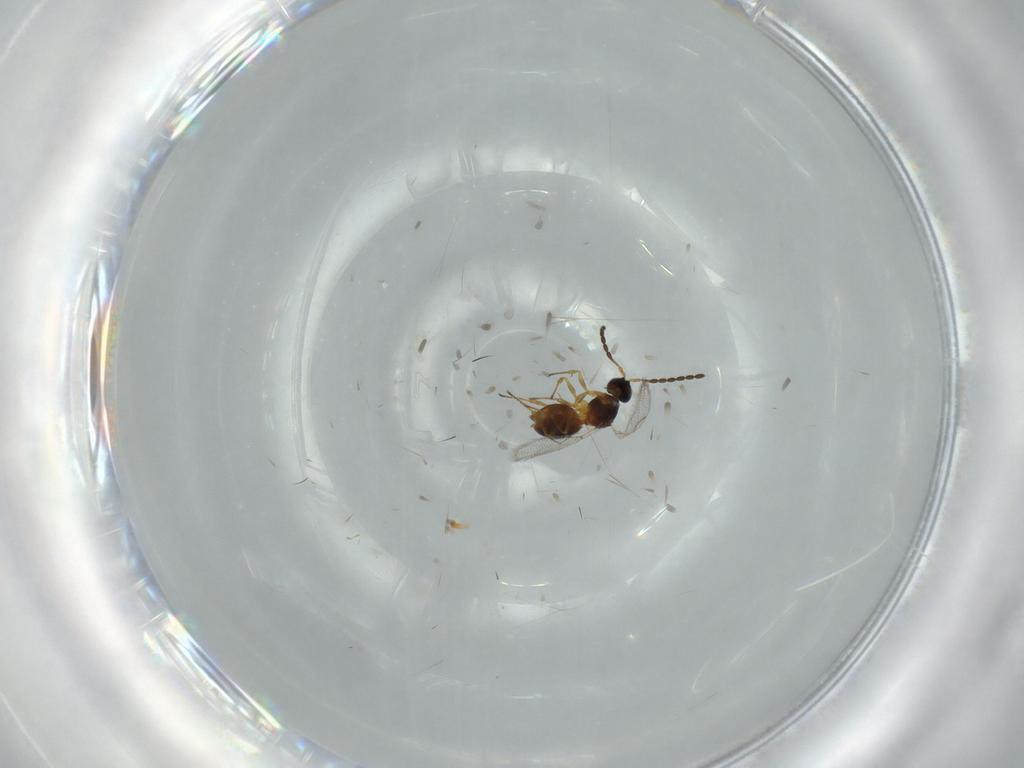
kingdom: Animalia
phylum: Arthropoda
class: Insecta
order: Hymenoptera
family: Figitidae
